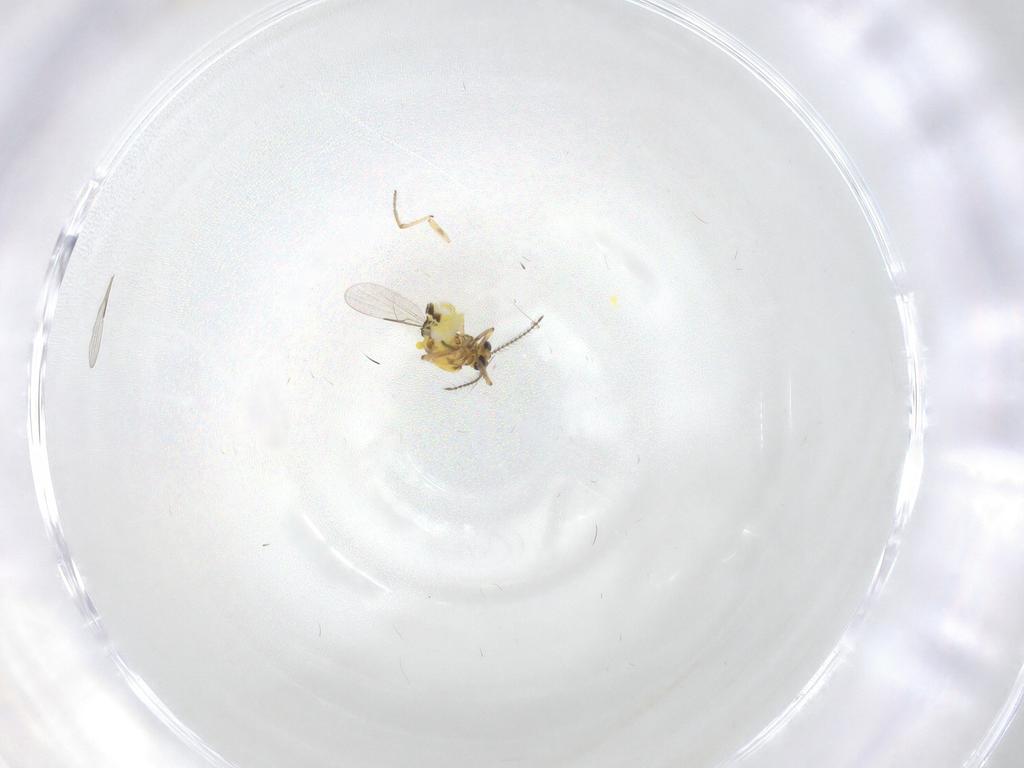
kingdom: Animalia
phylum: Arthropoda
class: Insecta
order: Diptera
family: Ceratopogonidae
